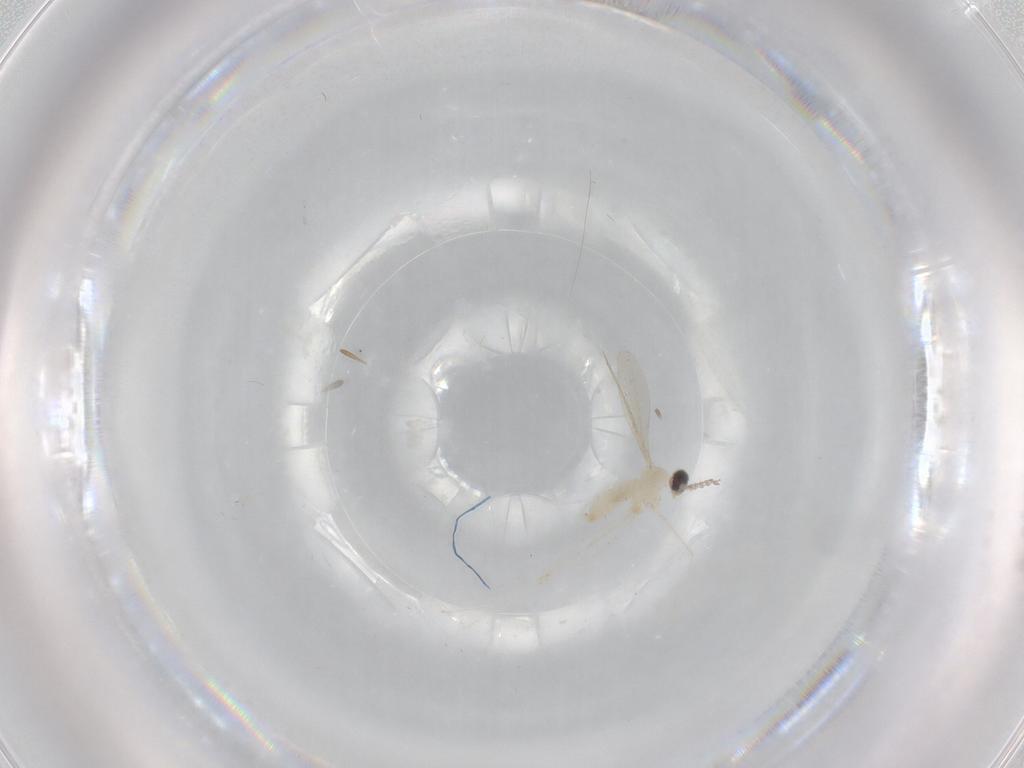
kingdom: Animalia
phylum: Arthropoda
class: Insecta
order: Diptera
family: Cecidomyiidae
